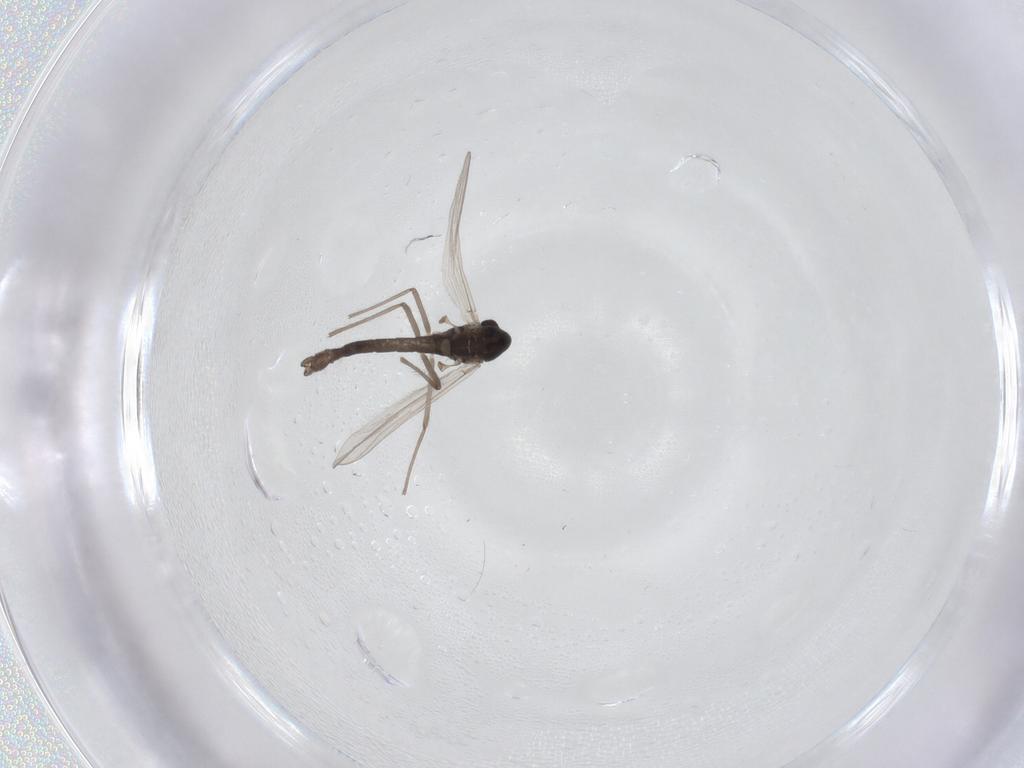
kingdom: Animalia
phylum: Arthropoda
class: Insecta
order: Diptera
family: Chironomidae
